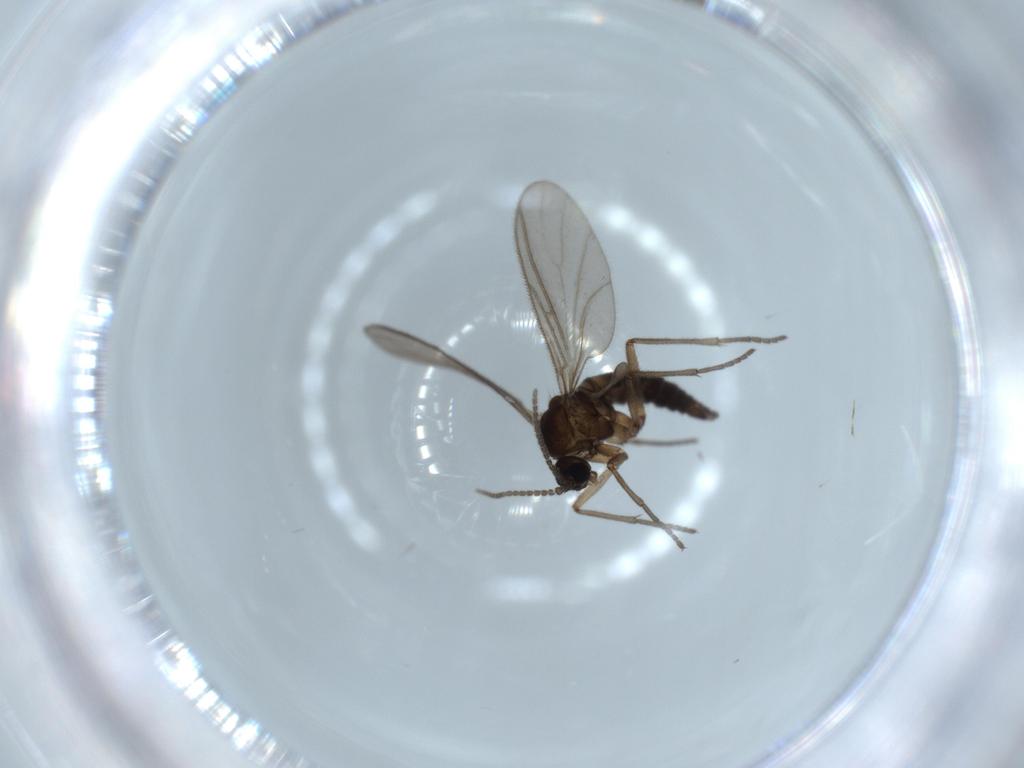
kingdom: Animalia
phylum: Arthropoda
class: Insecta
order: Diptera
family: Sciaridae
